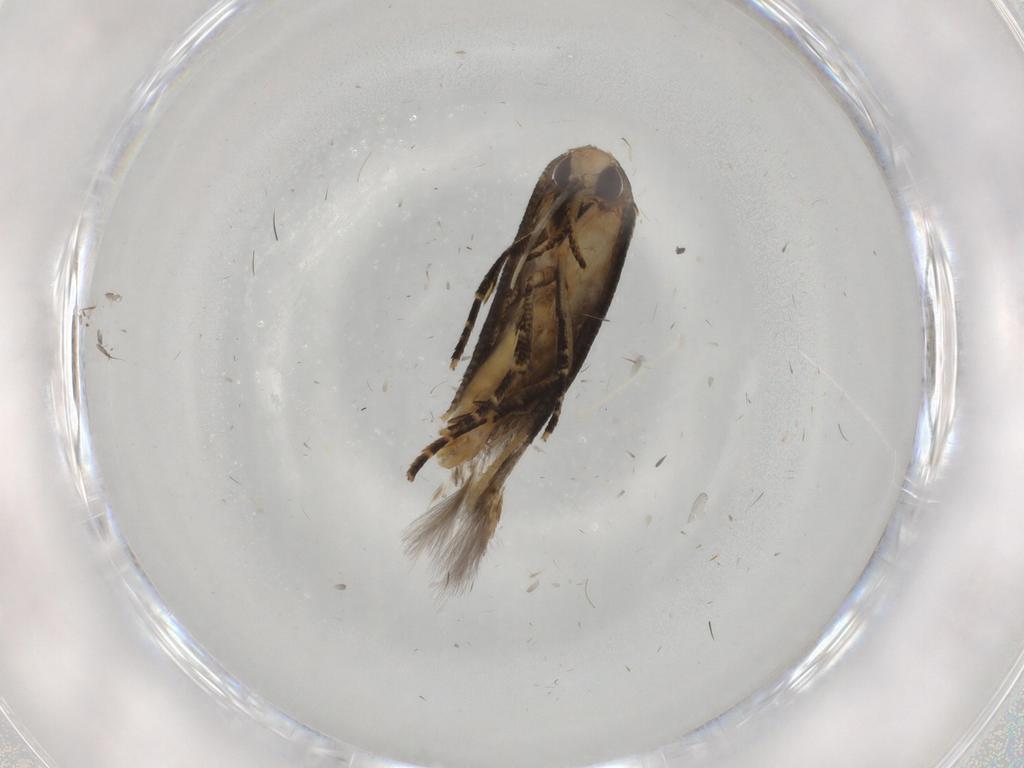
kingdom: Animalia
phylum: Arthropoda
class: Insecta
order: Lepidoptera
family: Cosmopterigidae
